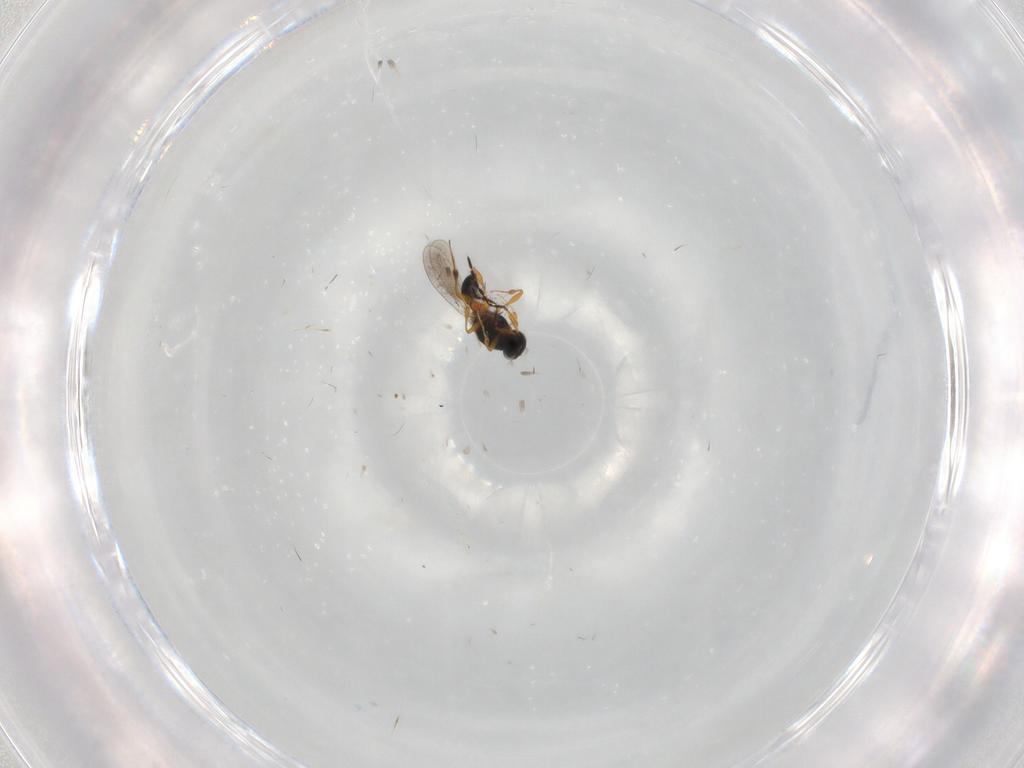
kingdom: Animalia
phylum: Arthropoda
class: Insecta
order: Hymenoptera
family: Platygastridae
